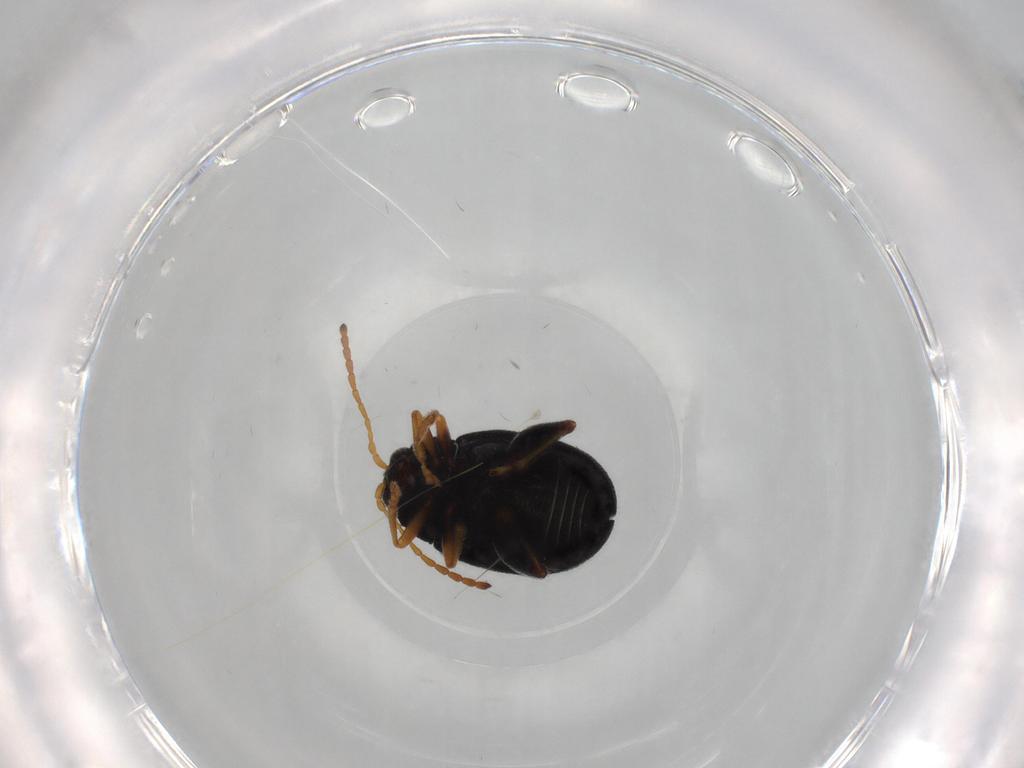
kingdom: Animalia
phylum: Arthropoda
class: Insecta
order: Coleoptera
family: Chrysomelidae
